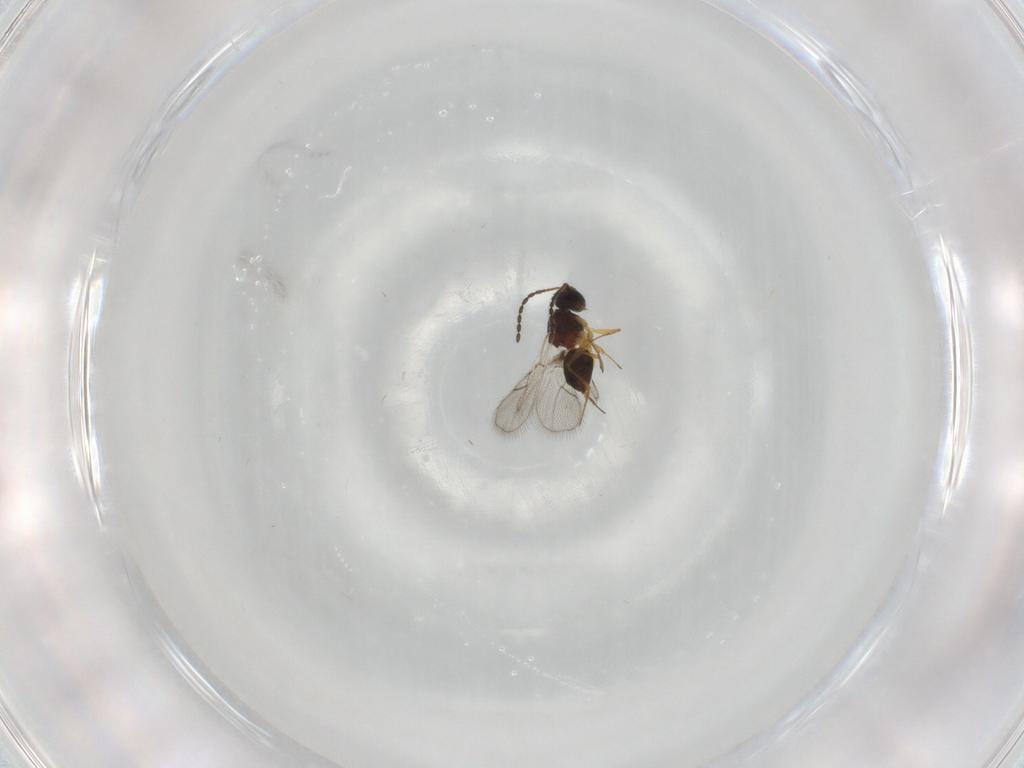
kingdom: Animalia
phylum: Arthropoda
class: Insecta
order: Hymenoptera
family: Figitidae
